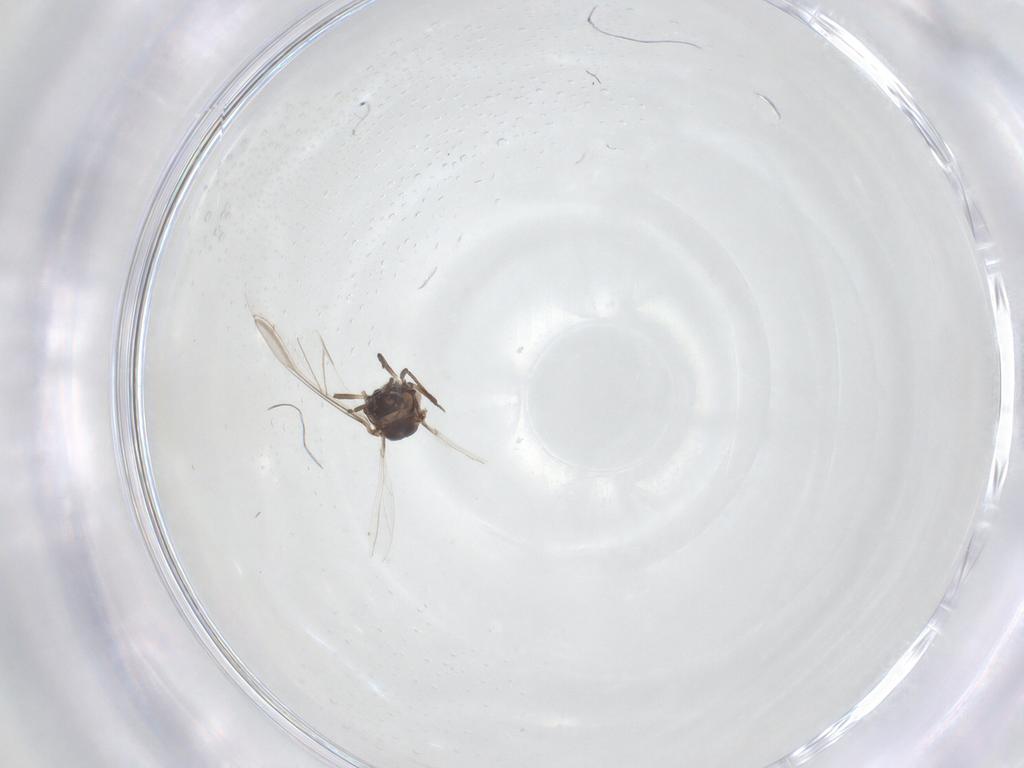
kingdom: Animalia
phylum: Arthropoda
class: Insecta
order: Hemiptera
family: Aphididae
